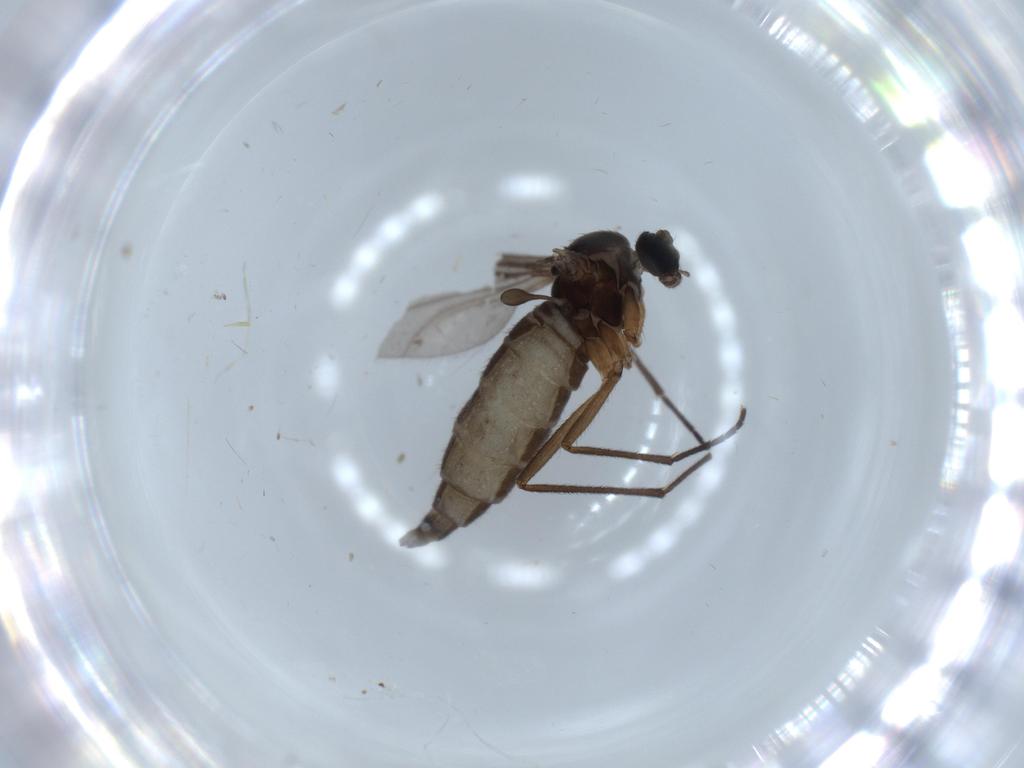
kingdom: Animalia
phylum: Arthropoda
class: Insecta
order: Diptera
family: Sciaridae
